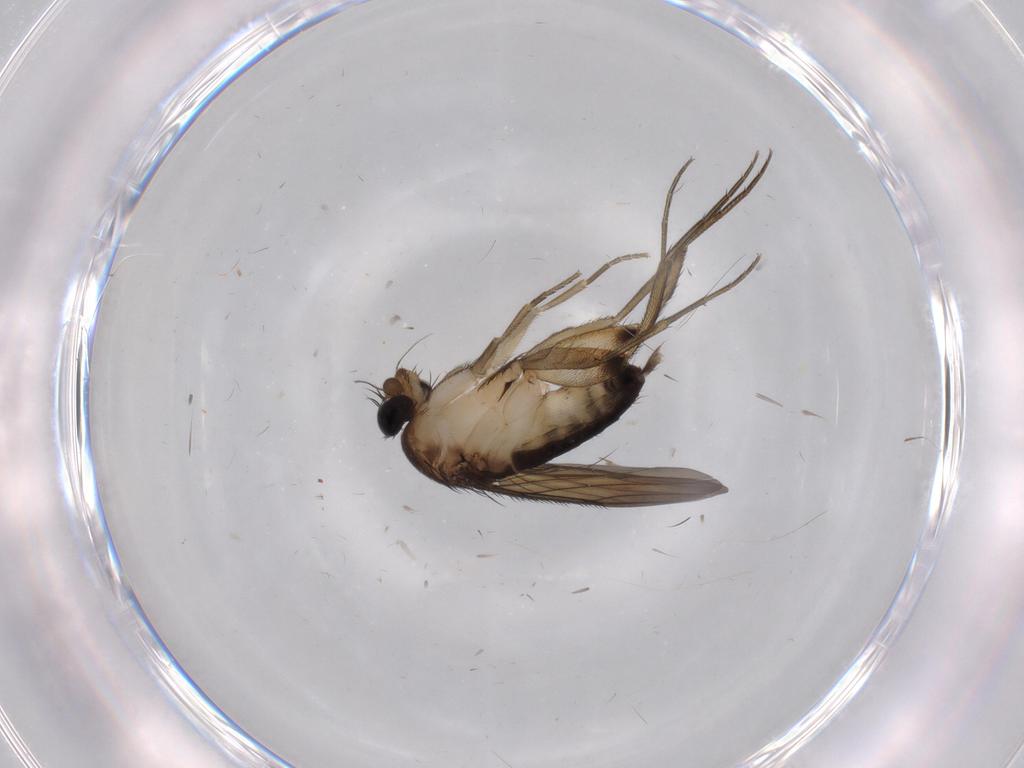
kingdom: Animalia
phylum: Arthropoda
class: Insecta
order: Diptera
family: Phoridae
